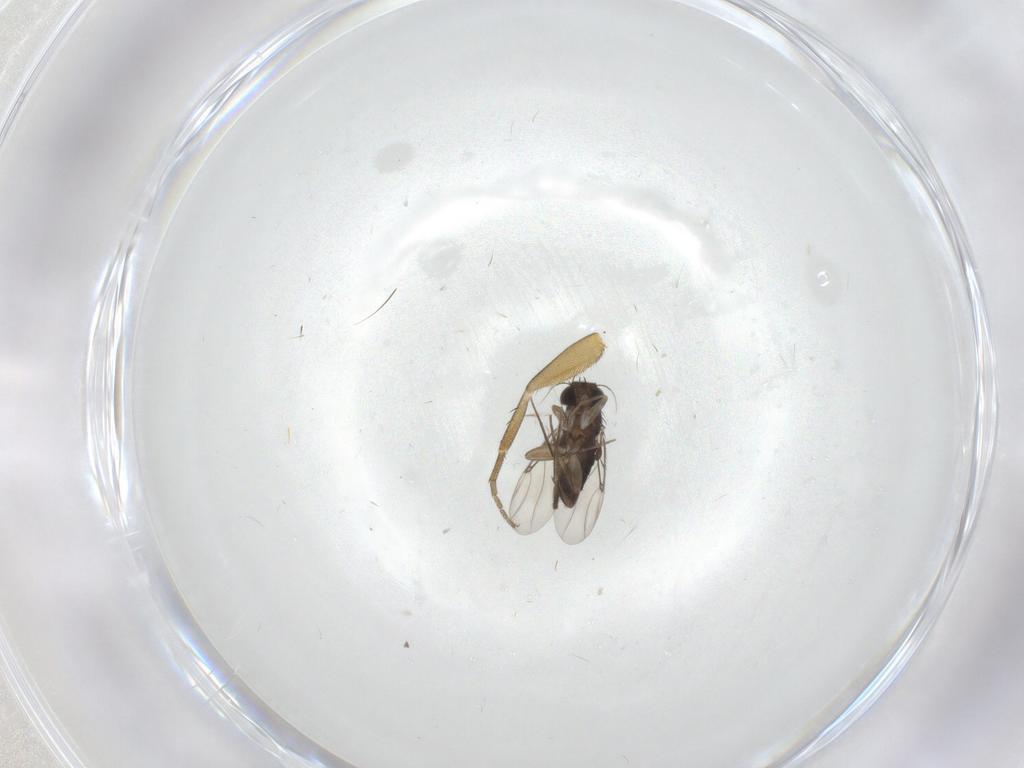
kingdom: Animalia
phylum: Arthropoda
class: Insecta
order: Diptera
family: Phoridae
